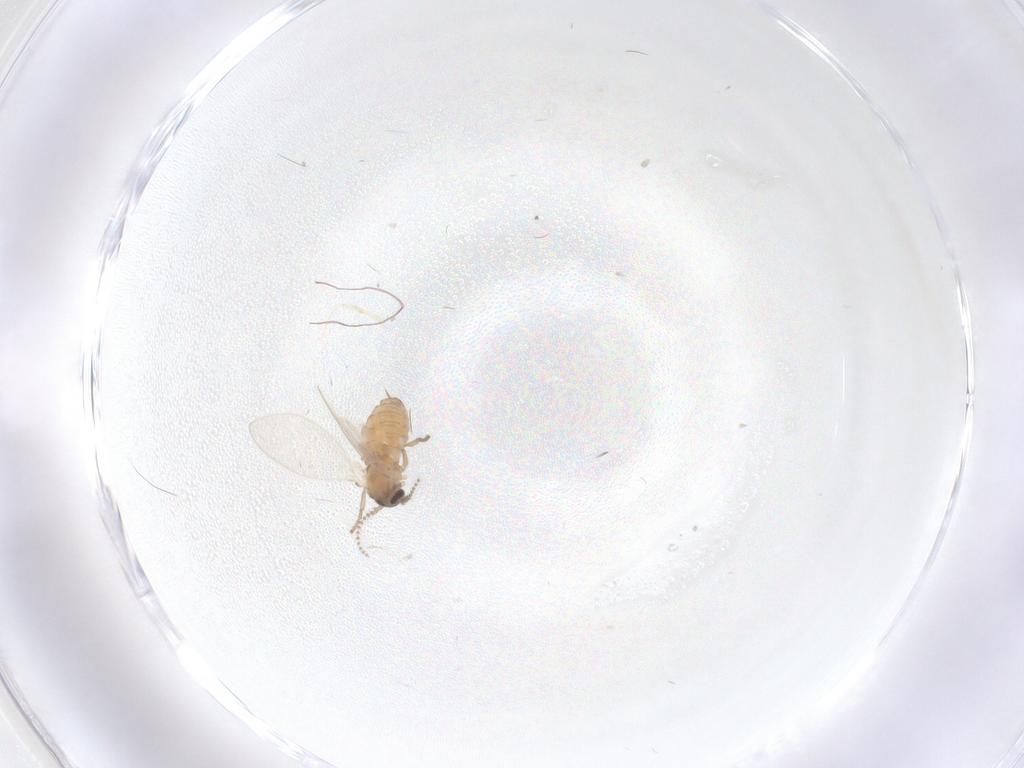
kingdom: Animalia
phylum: Arthropoda
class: Insecta
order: Diptera
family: Psychodidae
